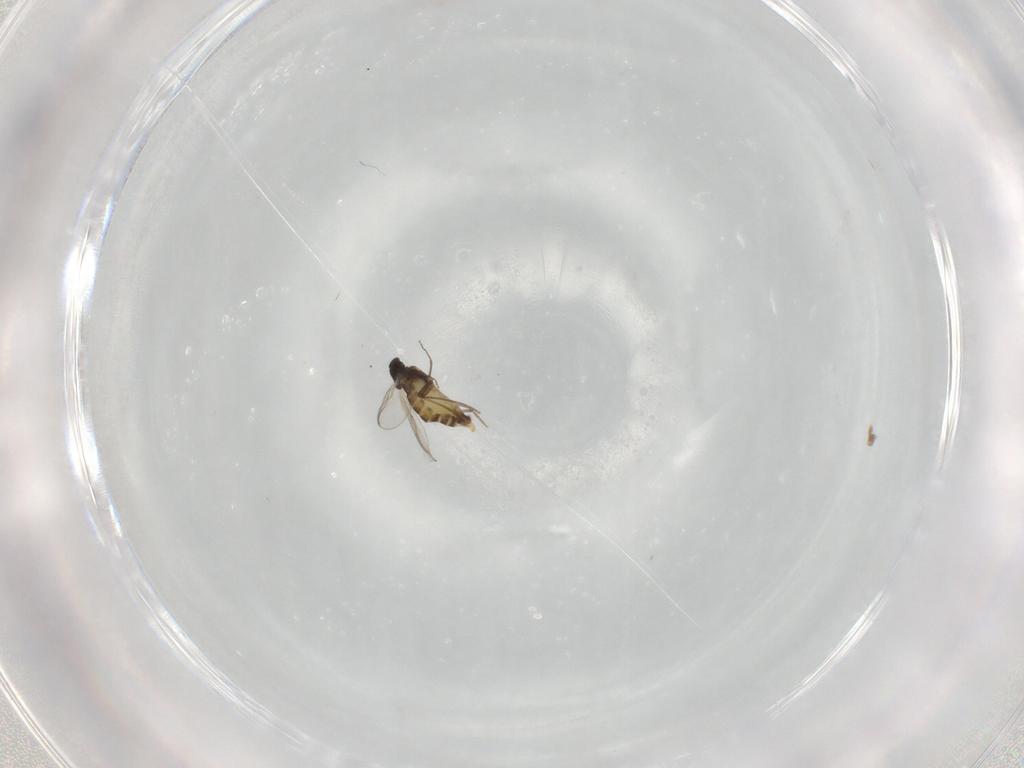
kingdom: Animalia
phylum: Arthropoda
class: Insecta
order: Diptera
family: Chironomidae
